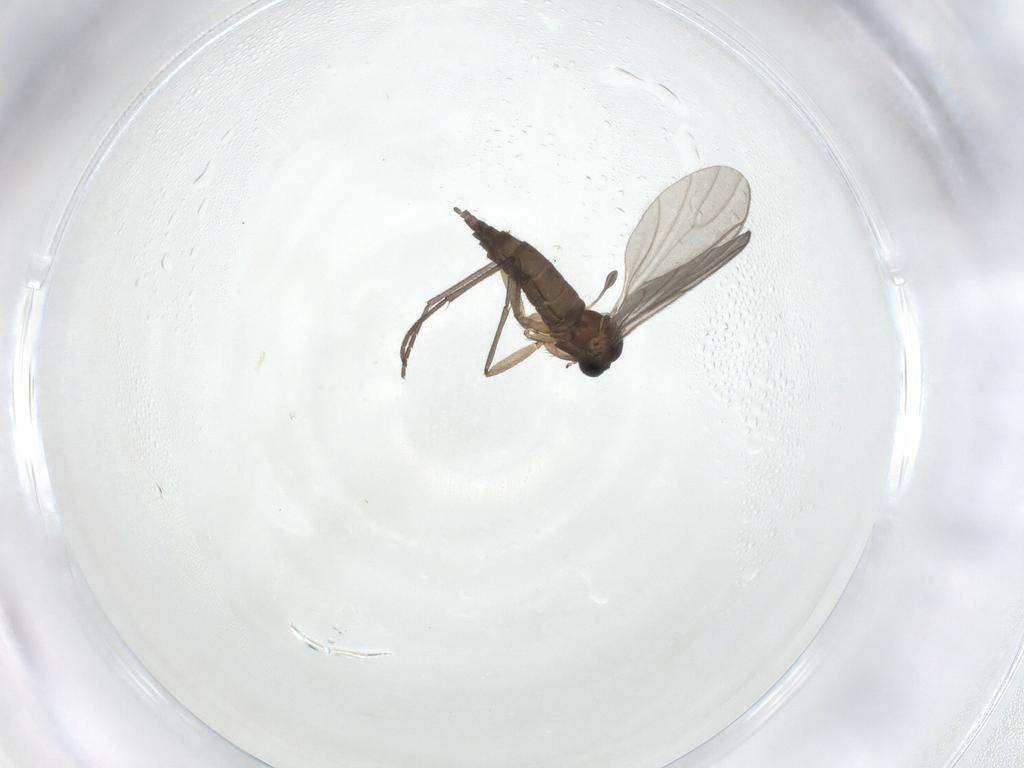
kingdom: Animalia
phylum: Arthropoda
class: Insecta
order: Diptera
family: Sciaridae
